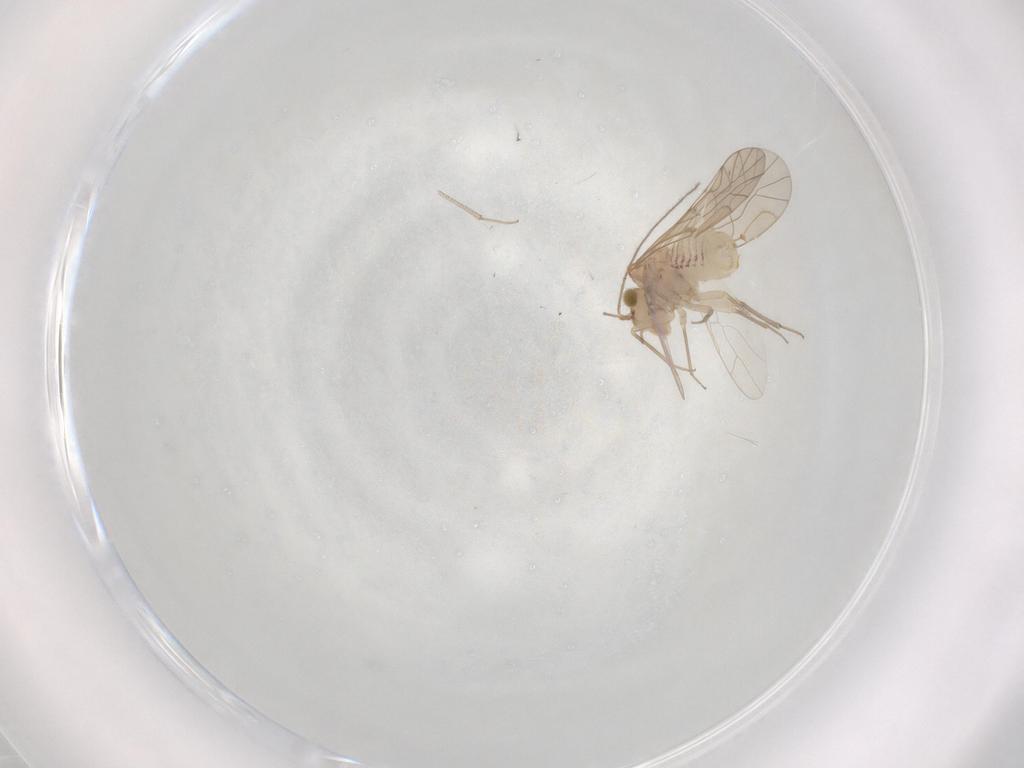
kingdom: Animalia
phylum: Arthropoda
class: Insecta
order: Psocodea
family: Lachesillidae
